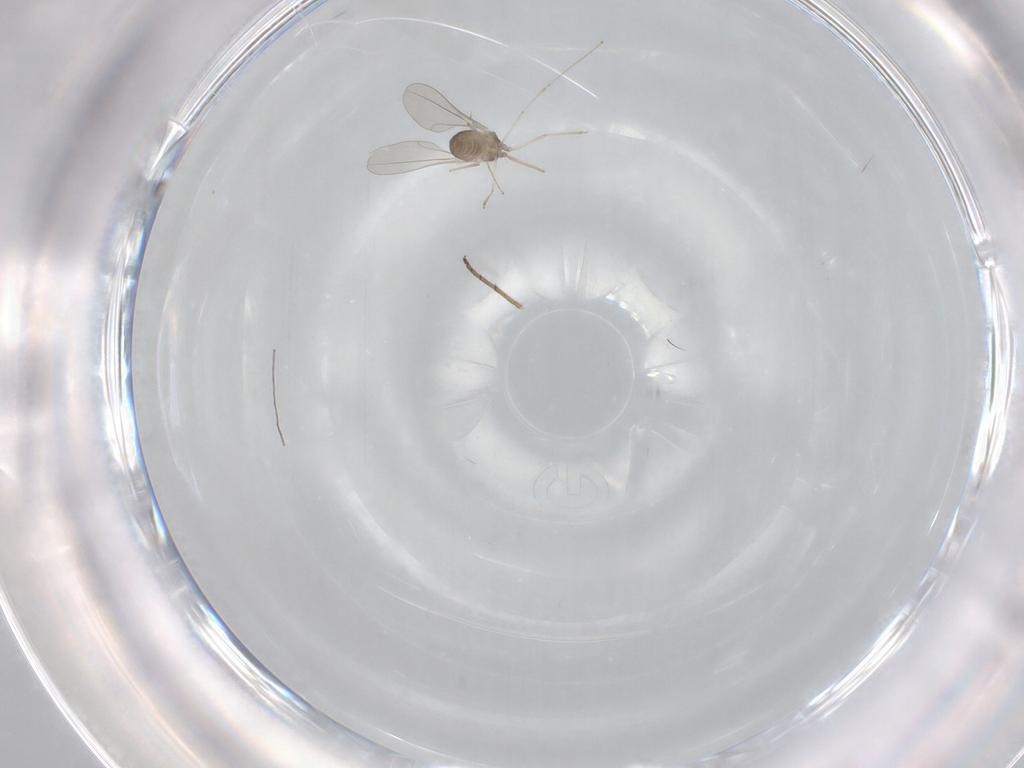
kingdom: Animalia
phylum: Arthropoda
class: Insecta
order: Diptera
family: Cecidomyiidae
